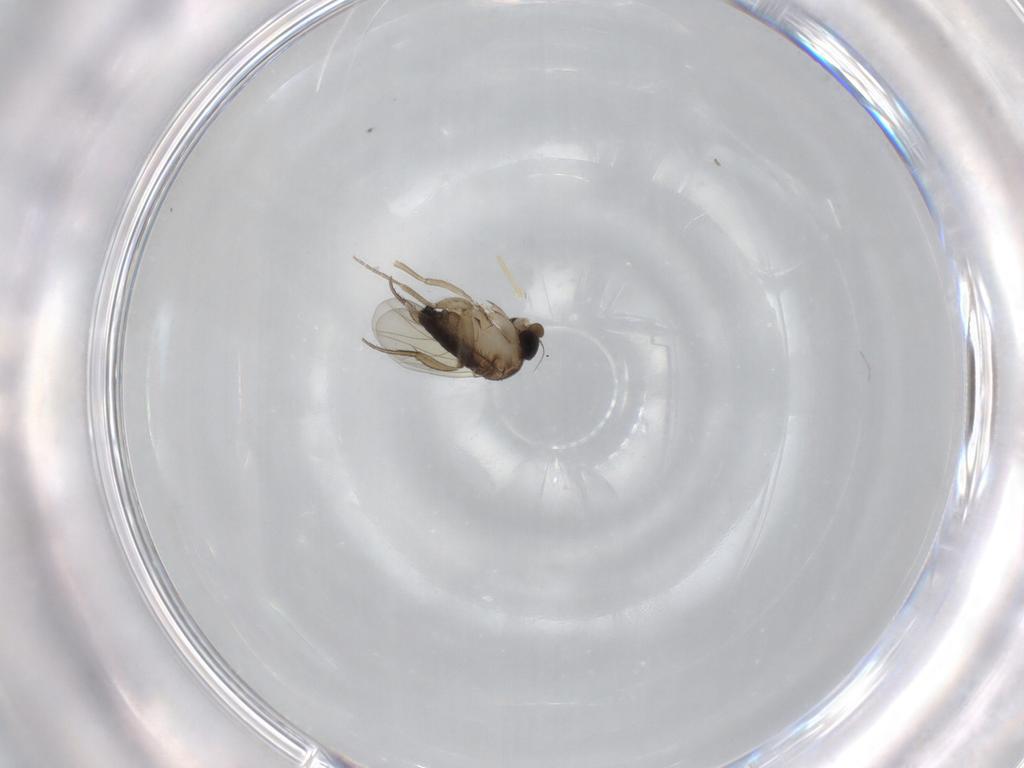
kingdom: Animalia
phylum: Arthropoda
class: Insecta
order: Diptera
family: Phoridae
